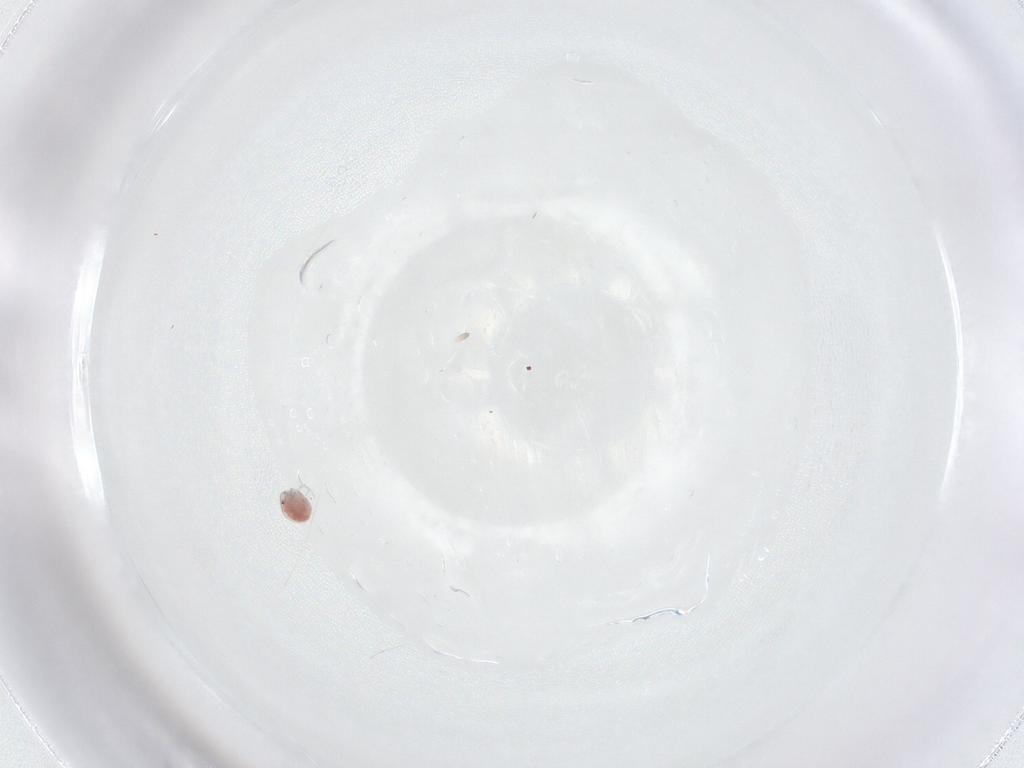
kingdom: Animalia
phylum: Arthropoda
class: Arachnida
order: Trombidiformes
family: Pionidae
